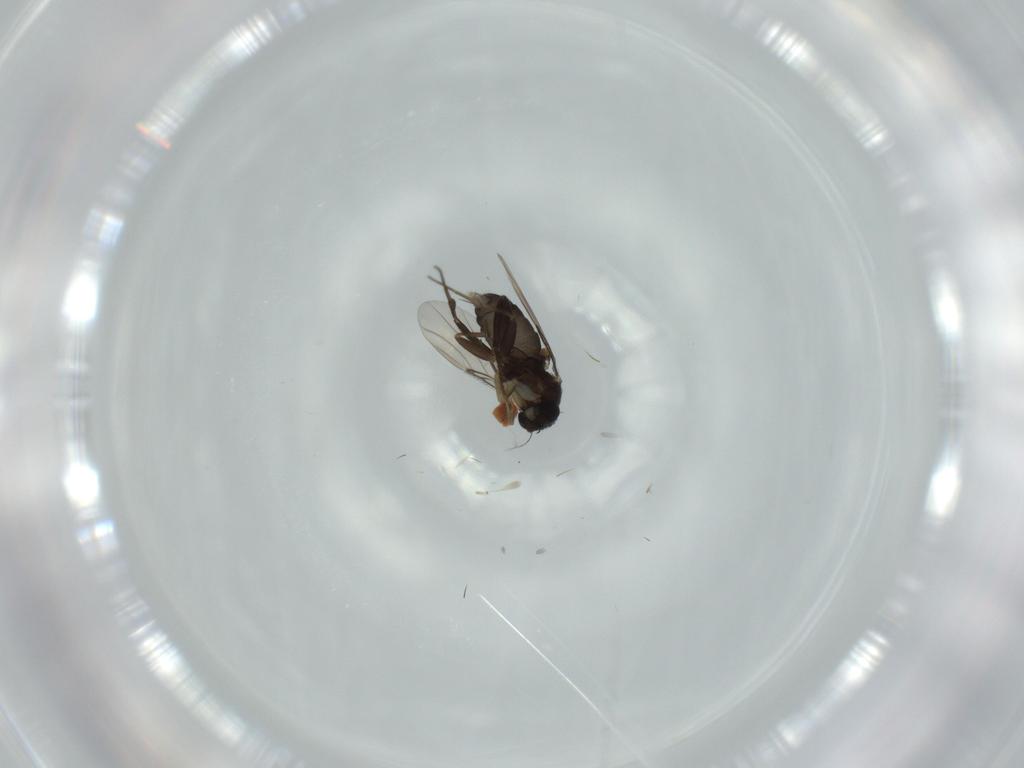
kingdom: Animalia
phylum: Arthropoda
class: Insecta
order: Diptera
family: Phoridae
